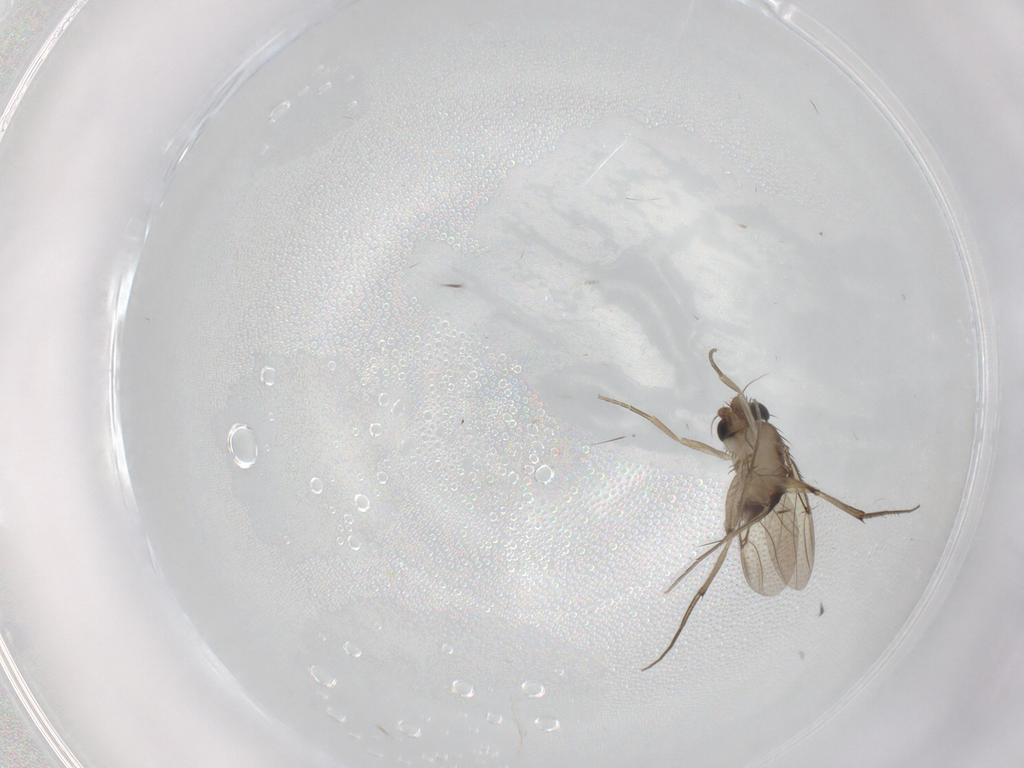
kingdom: Animalia
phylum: Arthropoda
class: Insecta
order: Diptera
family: Phoridae
